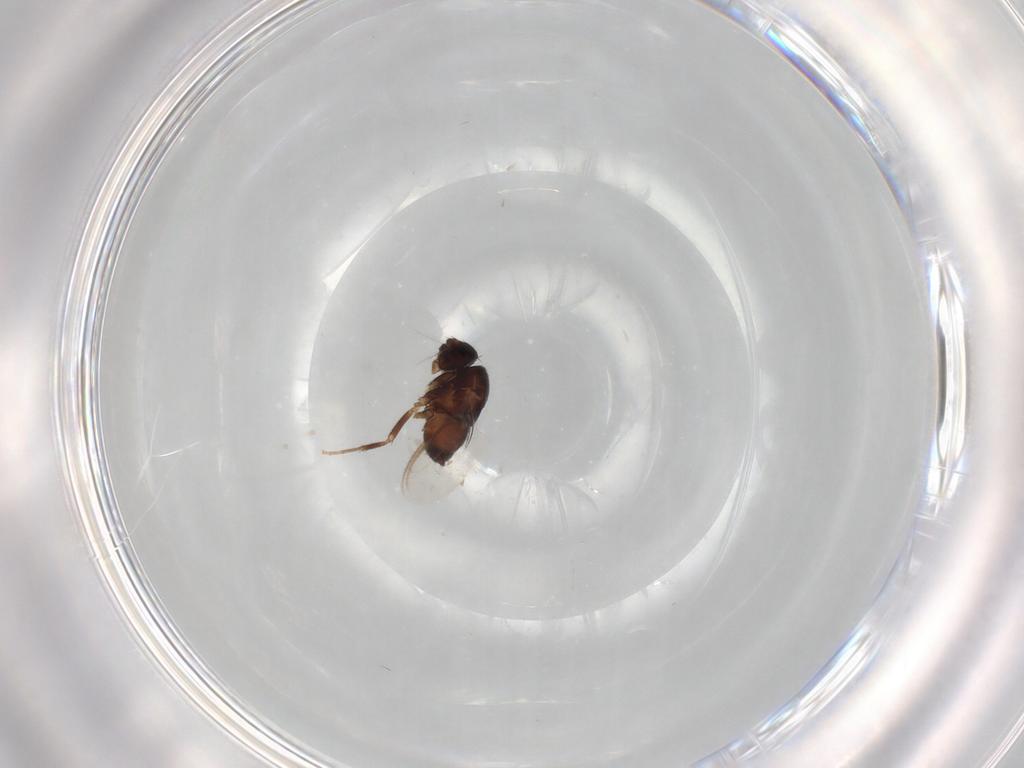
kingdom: Animalia
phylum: Arthropoda
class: Insecta
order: Diptera
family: Sphaeroceridae
